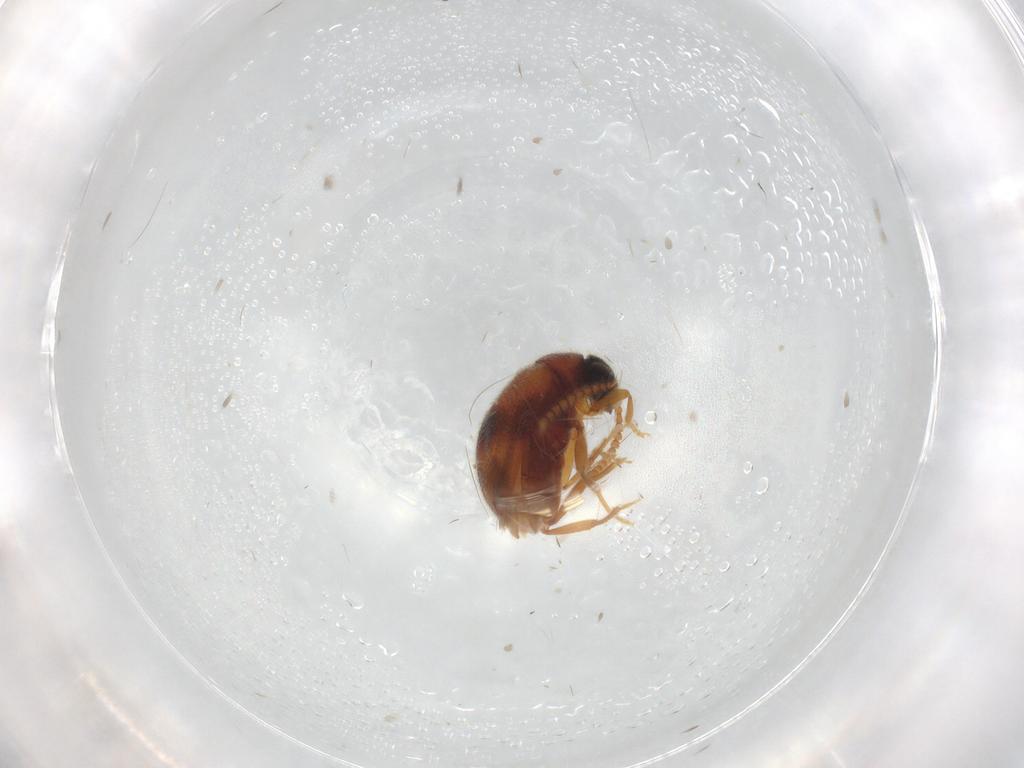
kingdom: Animalia
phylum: Arthropoda
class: Insecta
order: Coleoptera
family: Aderidae
